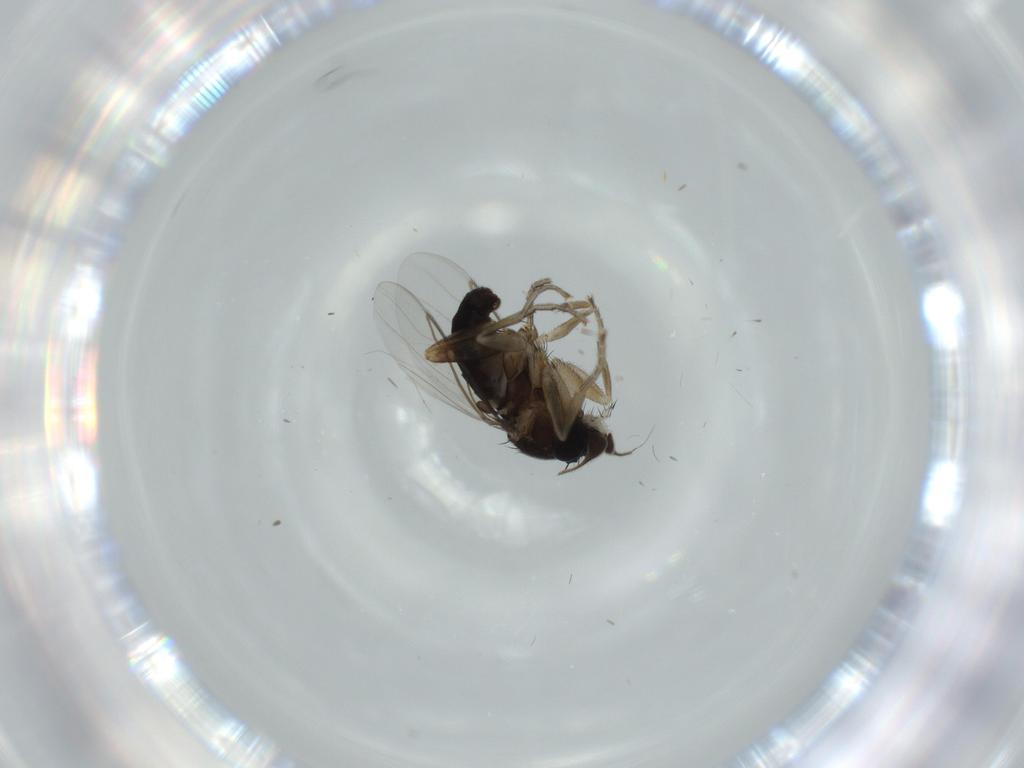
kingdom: Animalia
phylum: Arthropoda
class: Insecta
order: Diptera
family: Phoridae
